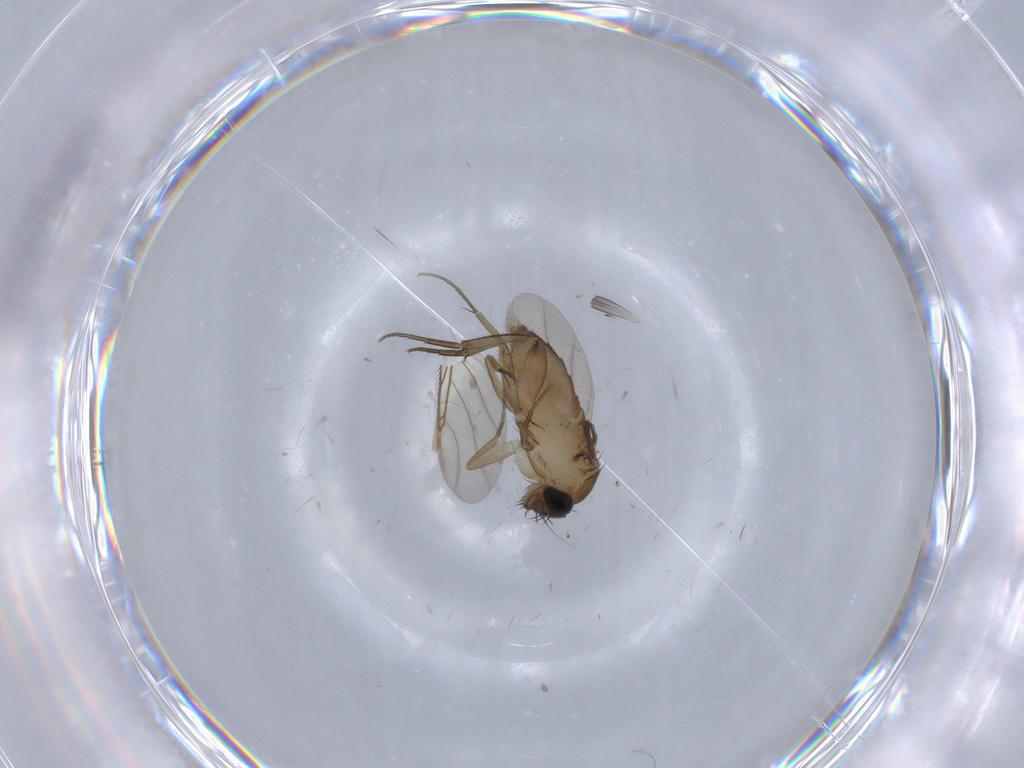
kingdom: Animalia
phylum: Arthropoda
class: Insecta
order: Diptera
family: Phoridae
